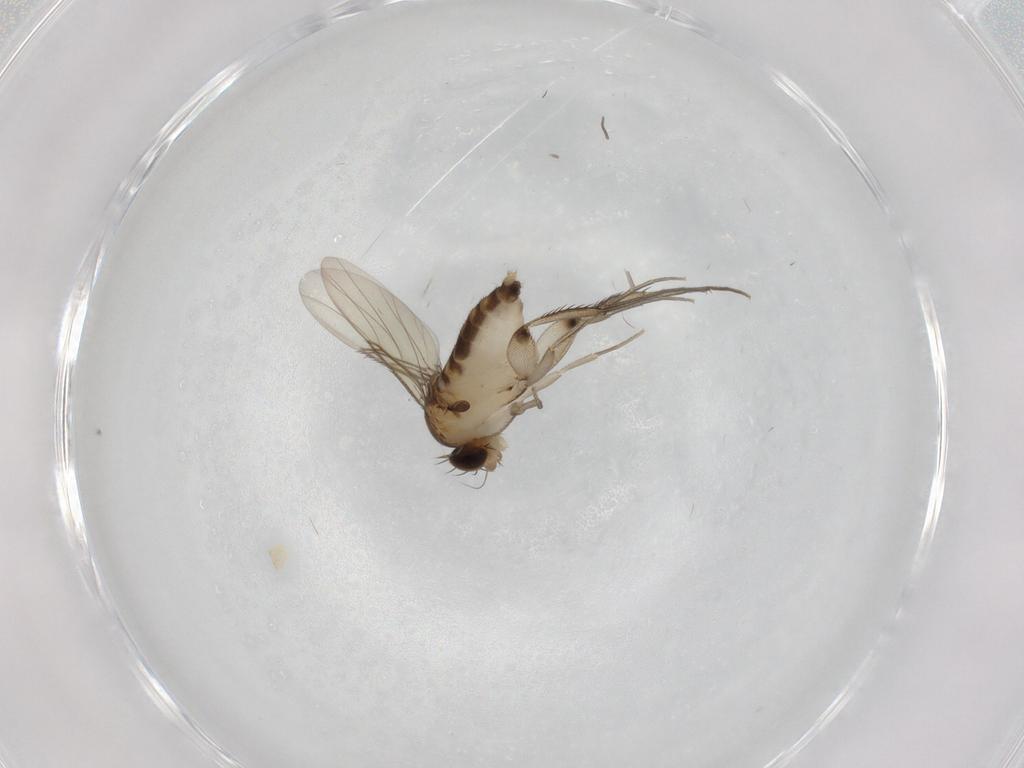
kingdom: Animalia
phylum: Arthropoda
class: Insecta
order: Diptera
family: Phoridae
